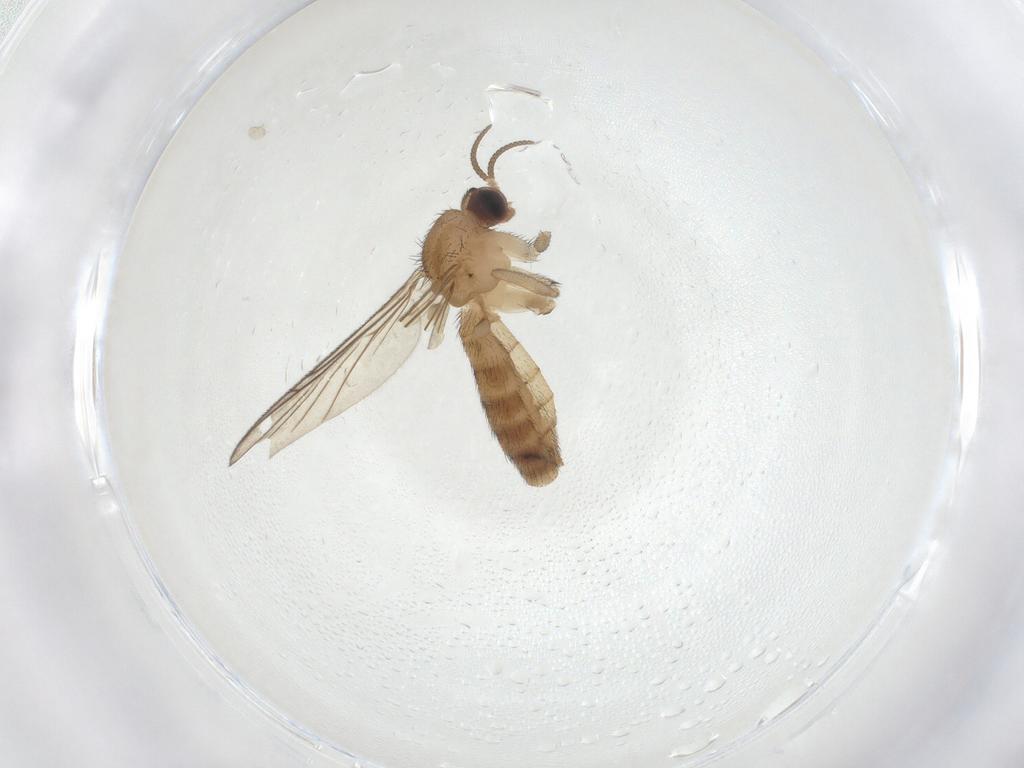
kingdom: Animalia
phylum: Arthropoda
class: Insecta
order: Diptera
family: Keroplatidae
